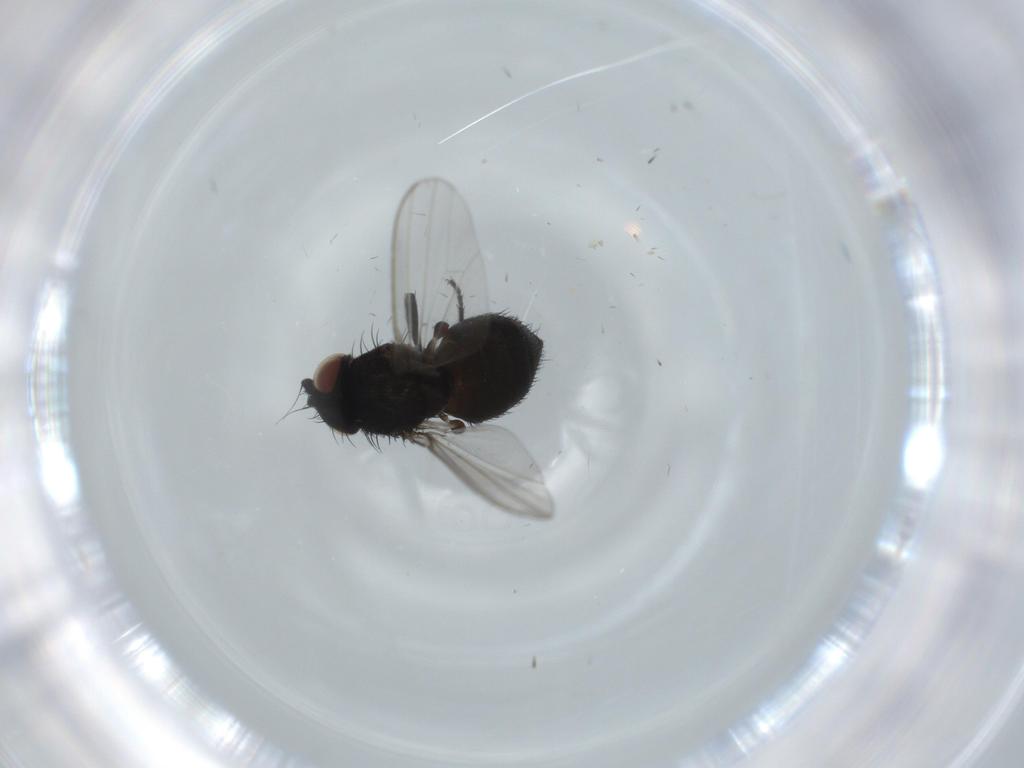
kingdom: Animalia
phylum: Arthropoda
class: Insecta
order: Diptera
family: Milichiidae
